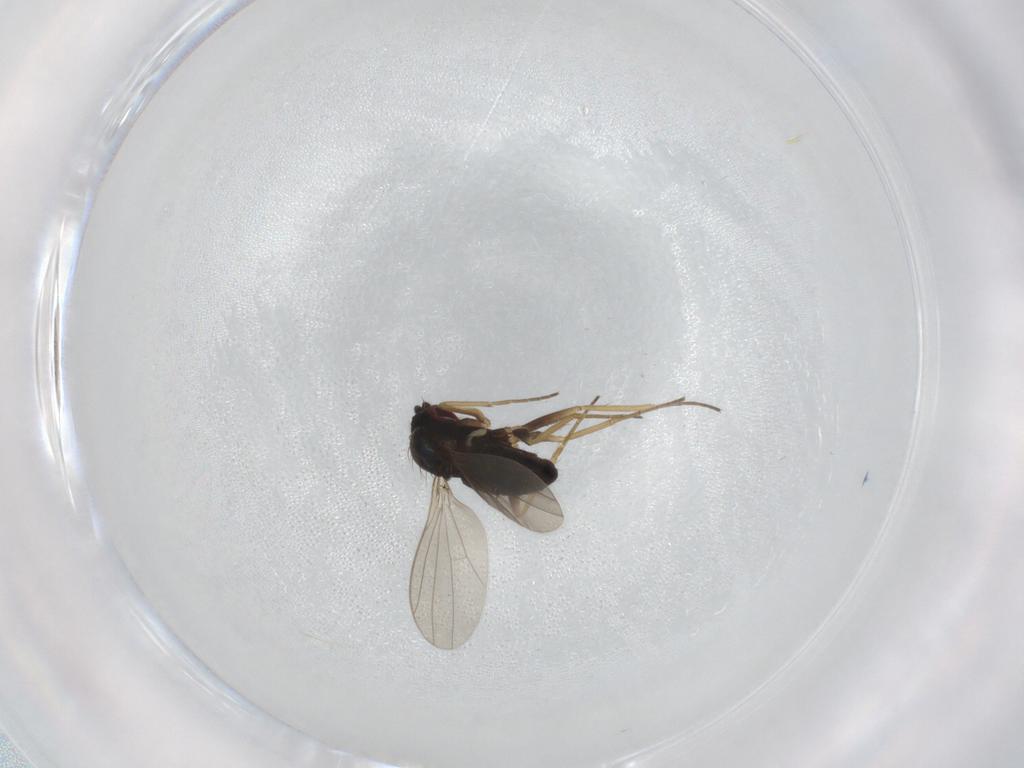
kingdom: Animalia
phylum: Arthropoda
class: Insecta
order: Diptera
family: Dolichopodidae
